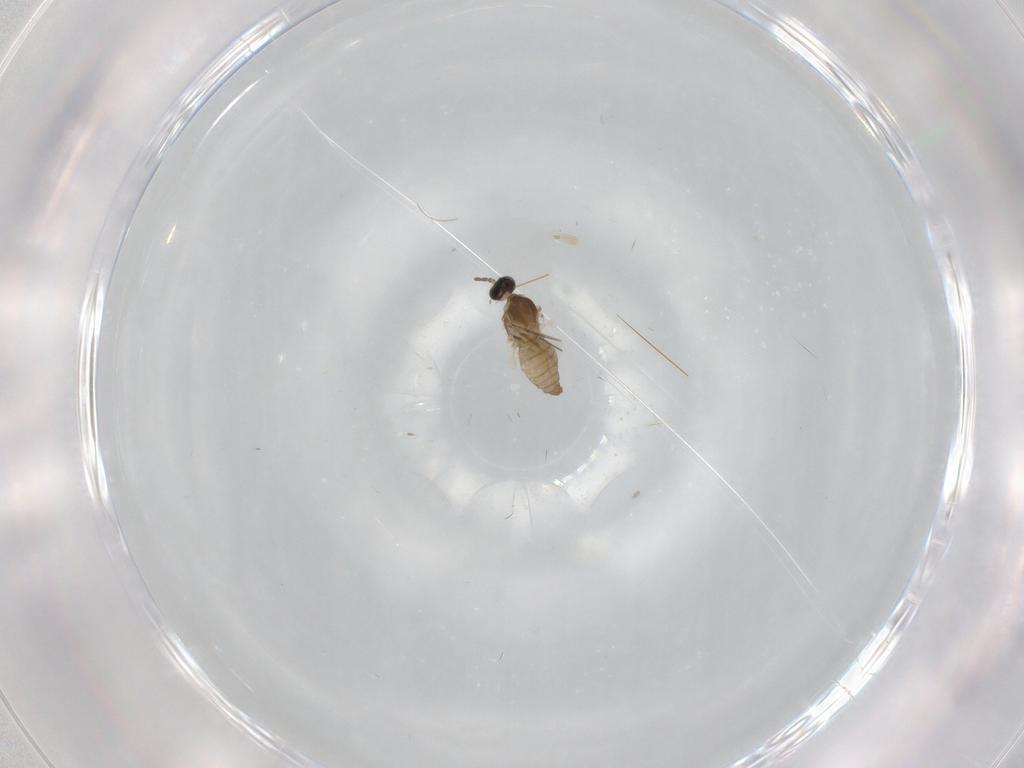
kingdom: Animalia
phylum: Arthropoda
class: Insecta
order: Diptera
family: Cecidomyiidae
